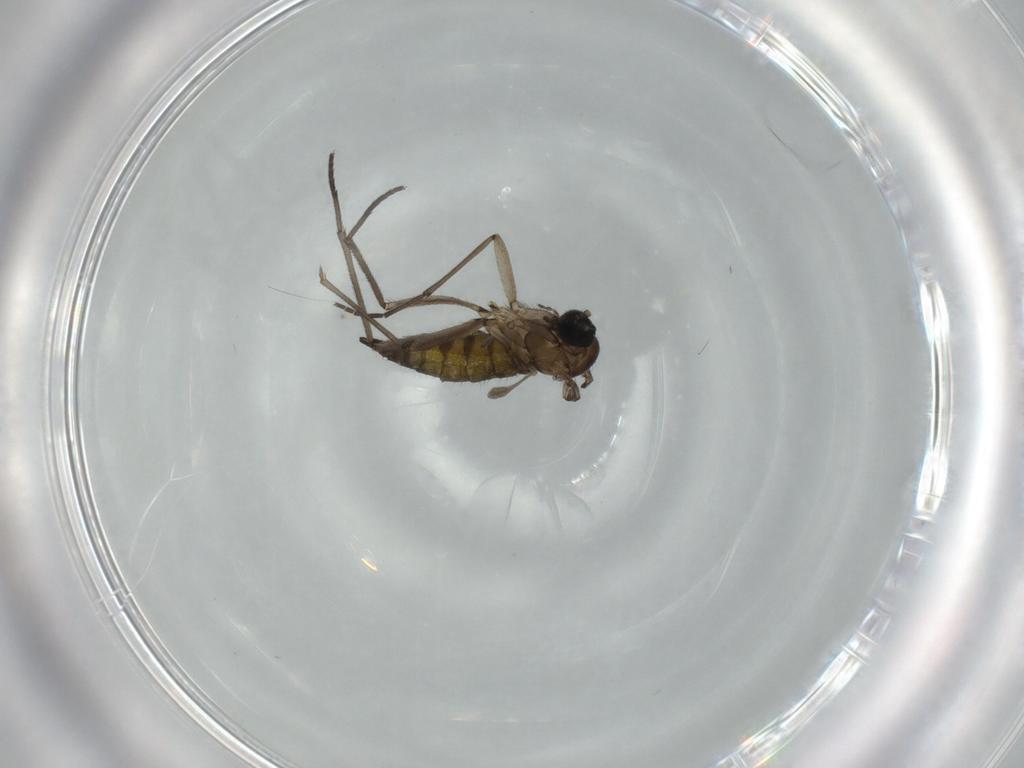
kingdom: Animalia
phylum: Arthropoda
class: Insecta
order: Diptera
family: Sciaridae
